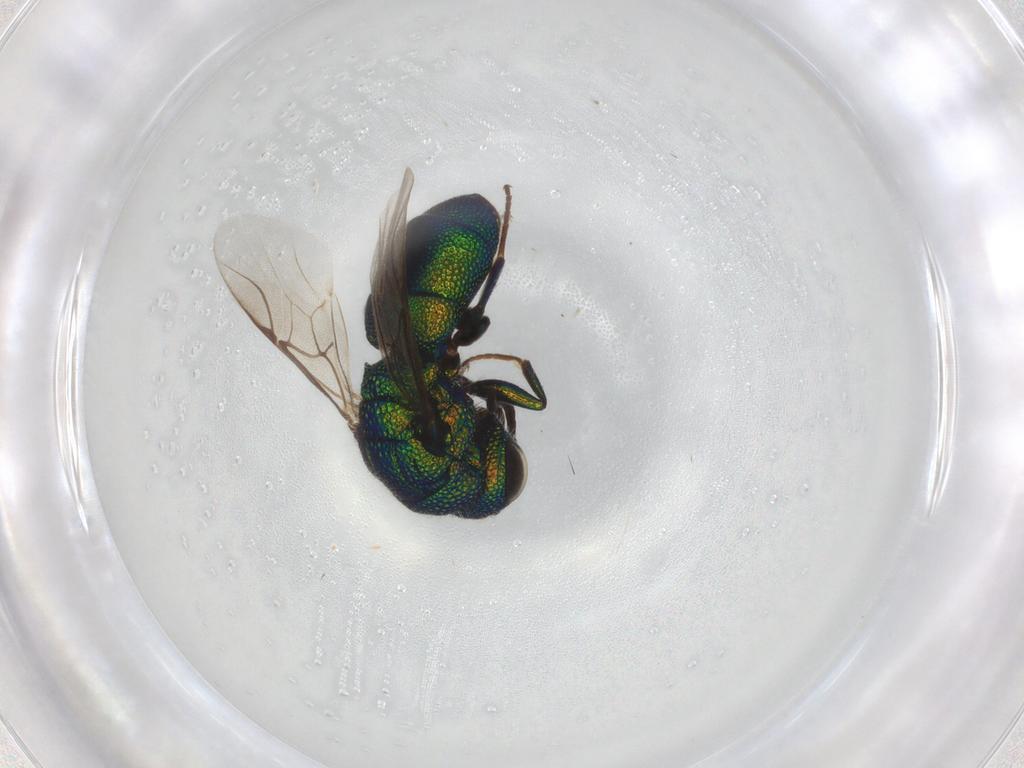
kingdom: Animalia
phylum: Arthropoda
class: Insecta
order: Hymenoptera
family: Chrysididae
